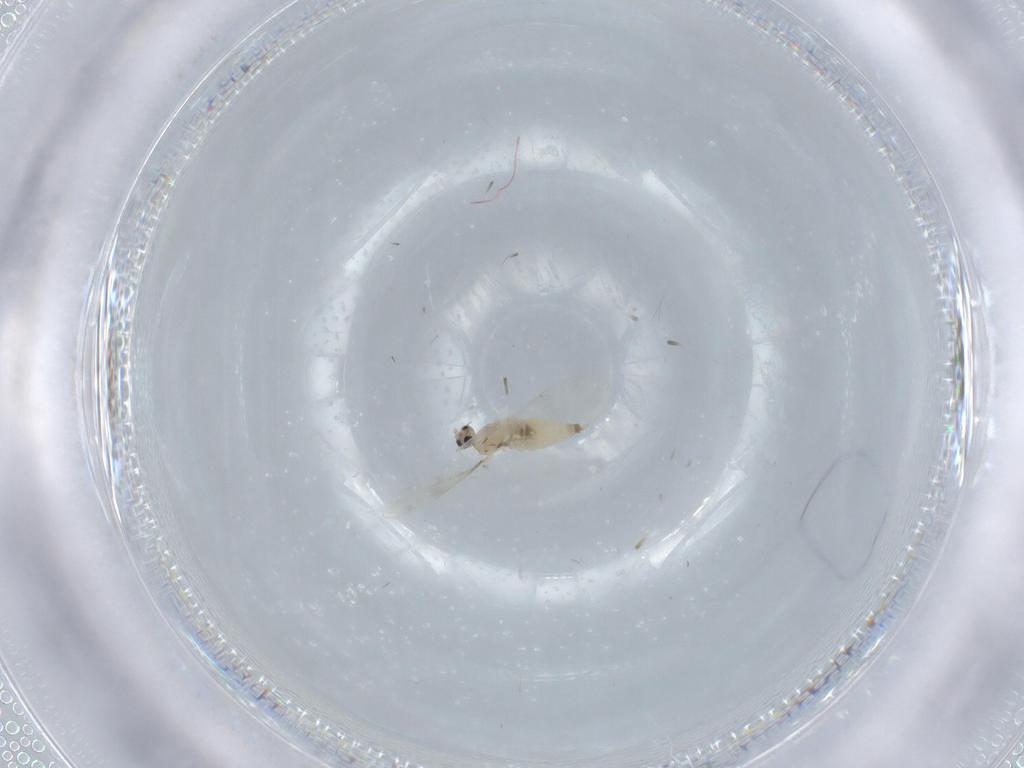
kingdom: Animalia
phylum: Arthropoda
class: Insecta
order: Diptera
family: Cecidomyiidae
